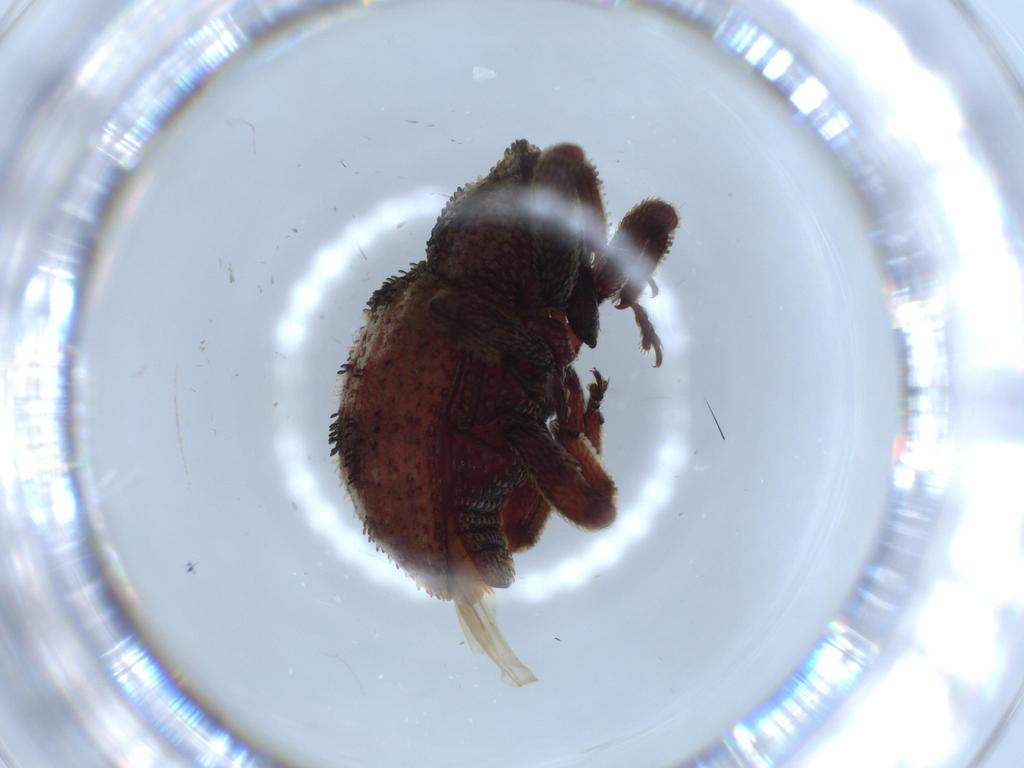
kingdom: Animalia
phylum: Arthropoda
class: Insecta
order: Coleoptera
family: Curculionidae
